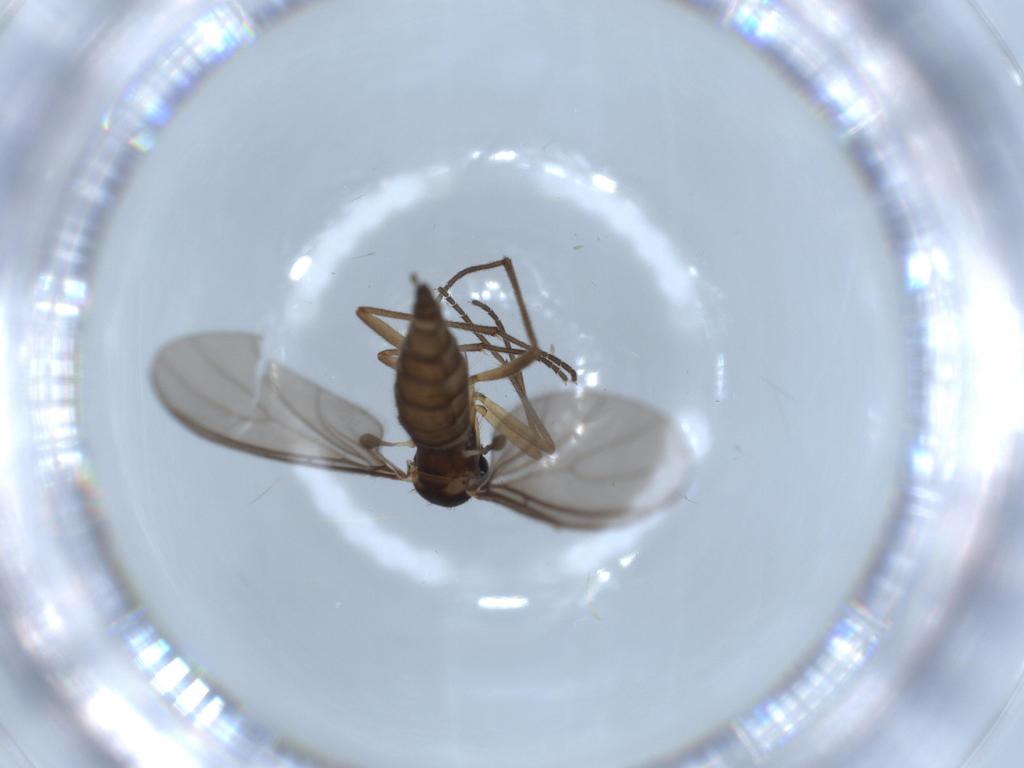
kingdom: Animalia
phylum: Arthropoda
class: Insecta
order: Diptera
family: Sciaridae
